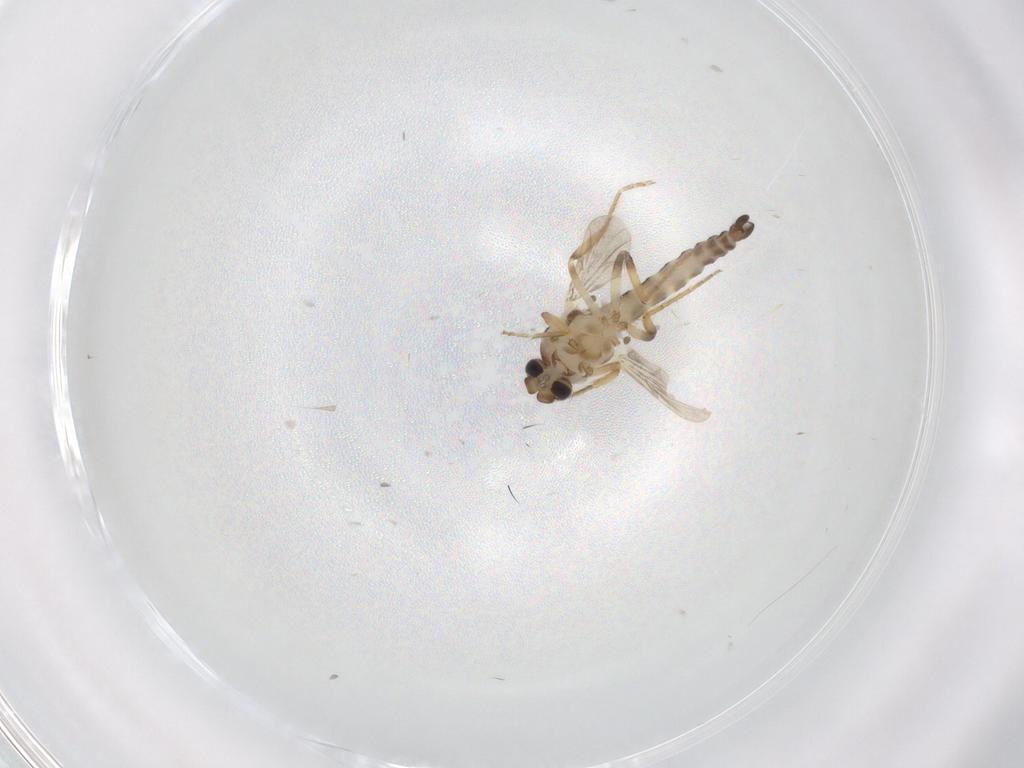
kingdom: Animalia
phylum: Arthropoda
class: Insecta
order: Diptera
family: Ceratopogonidae
